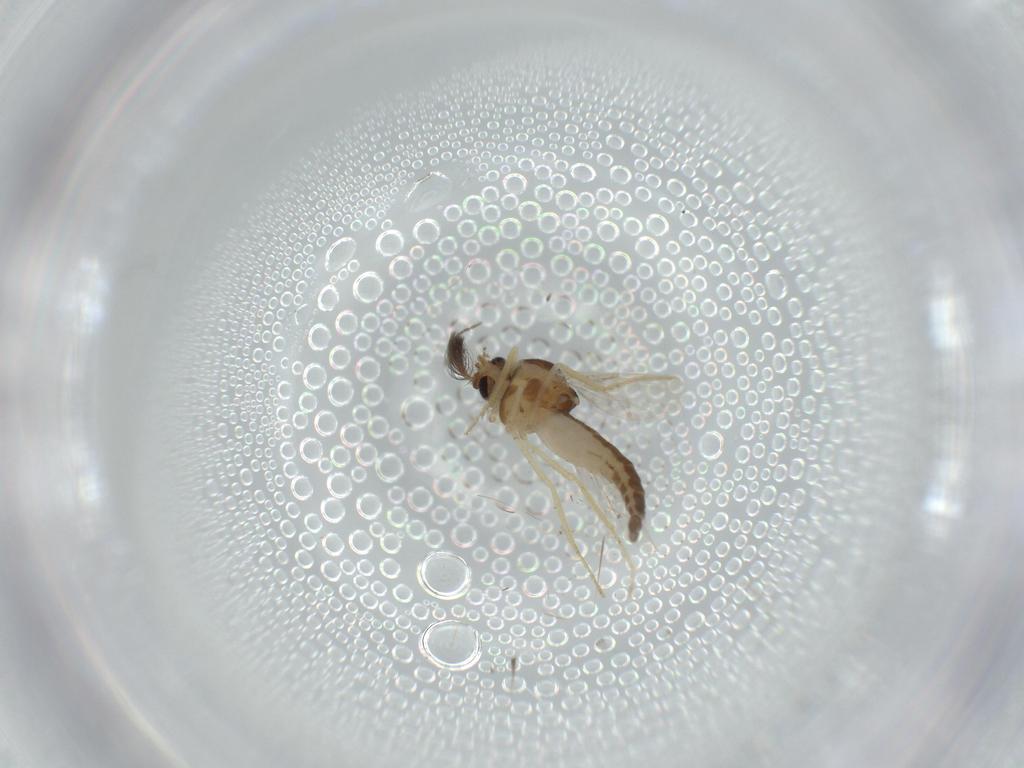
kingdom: Animalia
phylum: Arthropoda
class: Insecta
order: Diptera
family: Ceratopogonidae
